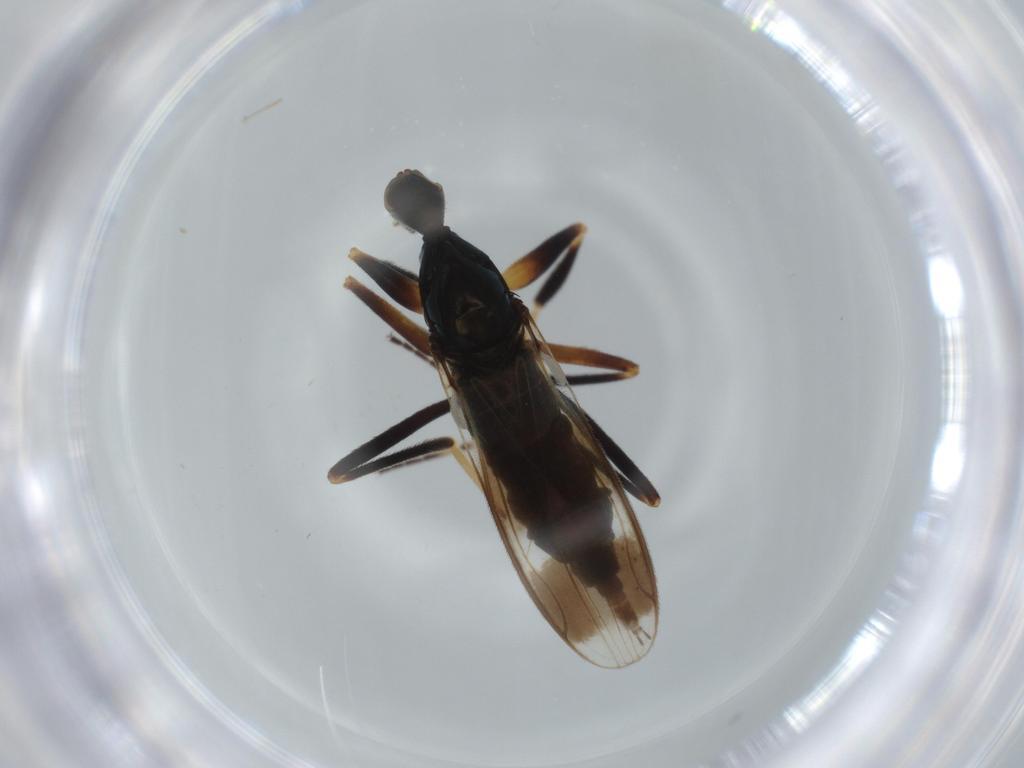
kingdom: Animalia
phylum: Arthropoda
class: Insecta
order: Diptera
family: Hybotidae
